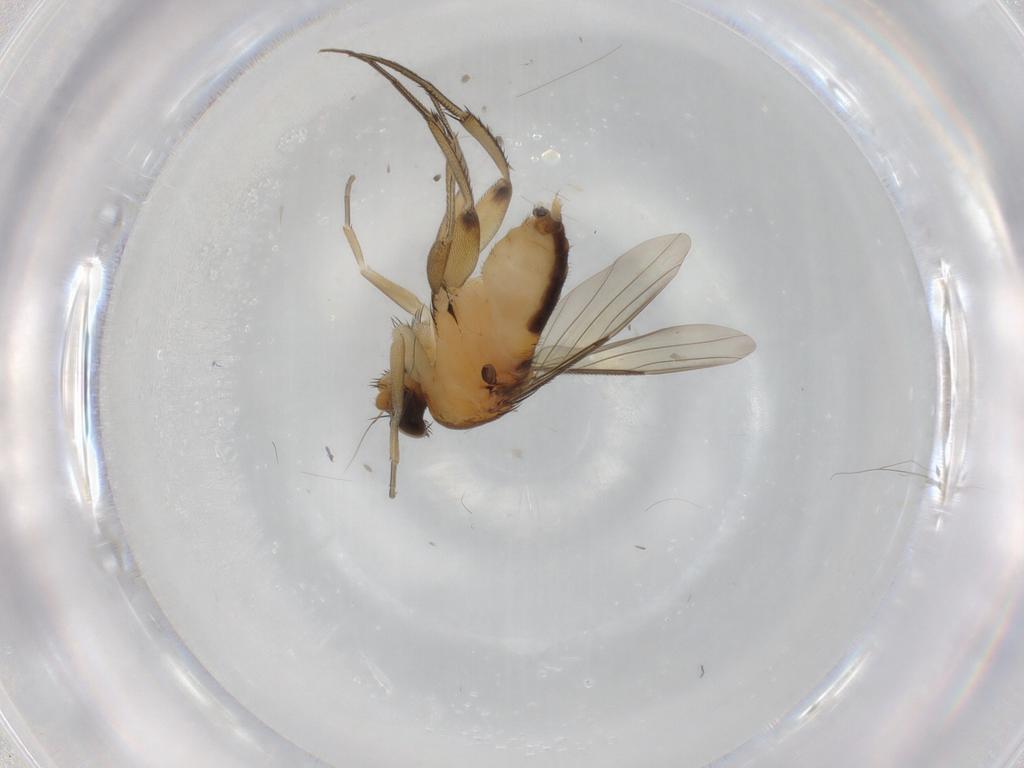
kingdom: Animalia
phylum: Arthropoda
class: Insecta
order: Diptera
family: Phoridae
